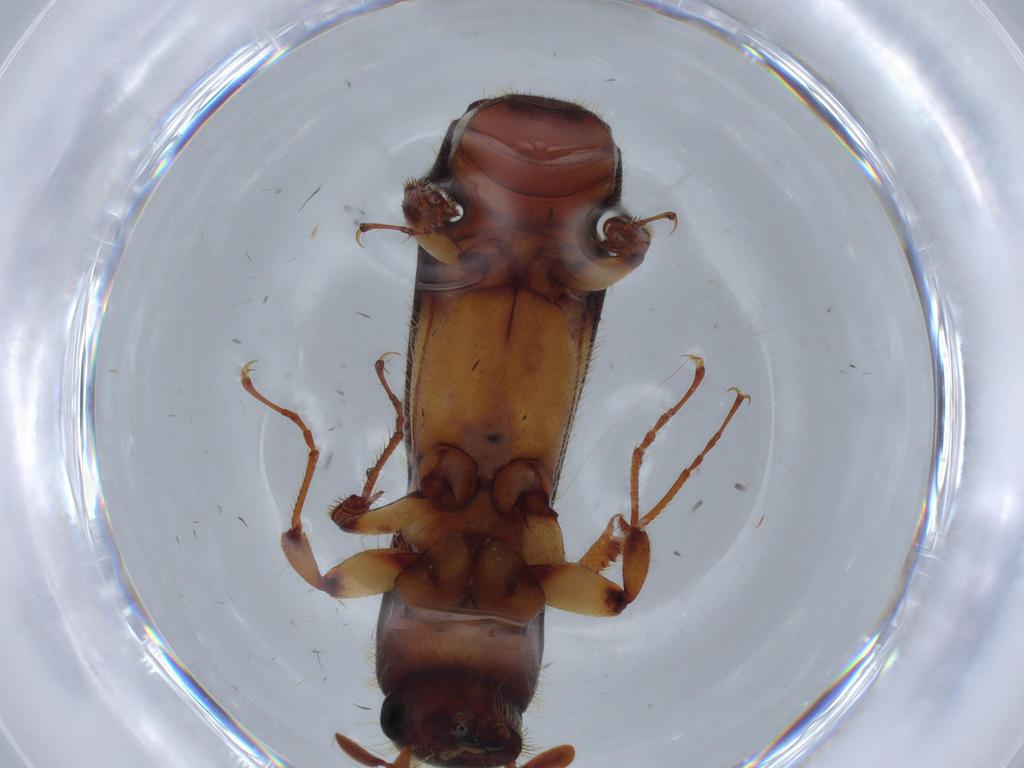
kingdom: Animalia
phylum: Arthropoda
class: Insecta
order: Coleoptera
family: Curculionidae
